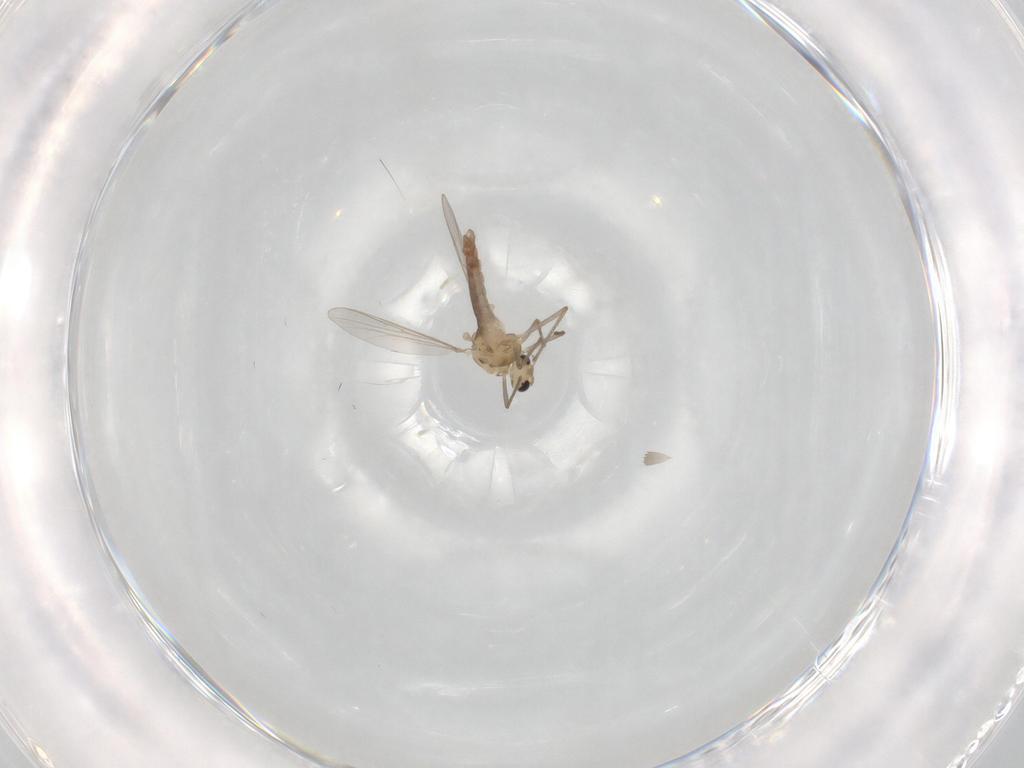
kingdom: Animalia
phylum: Arthropoda
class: Insecta
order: Diptera
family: Chironomidae
